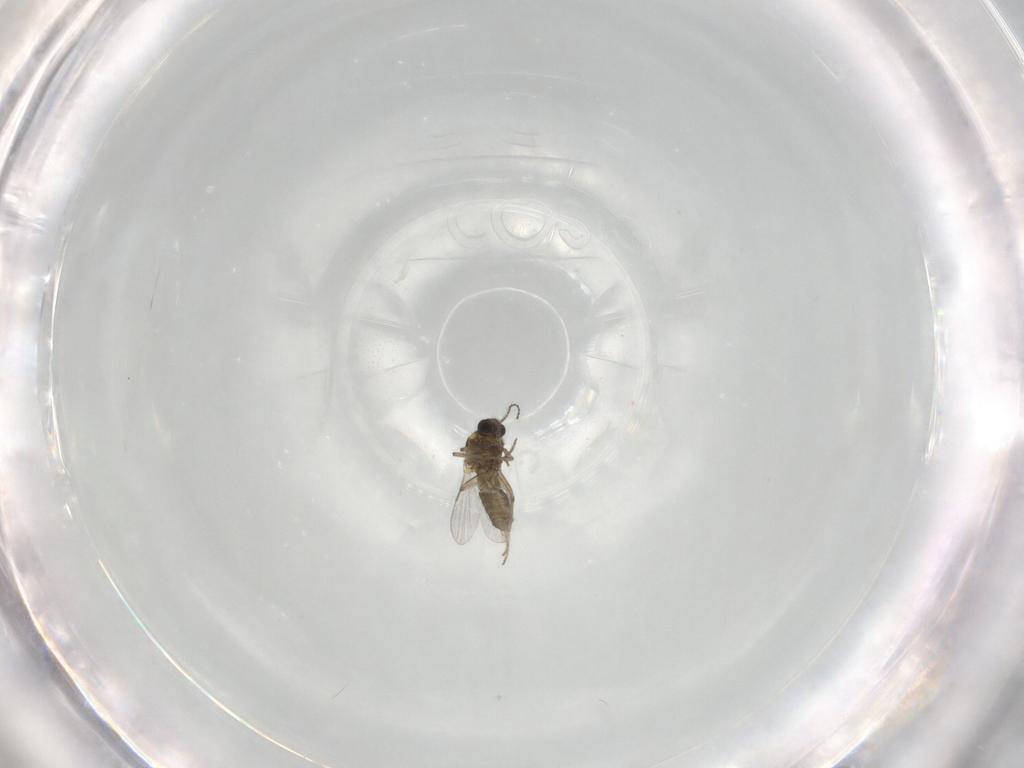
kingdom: Animalia
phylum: Arthropoda
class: Insecta
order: Diptera
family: Ceratopogonidae
